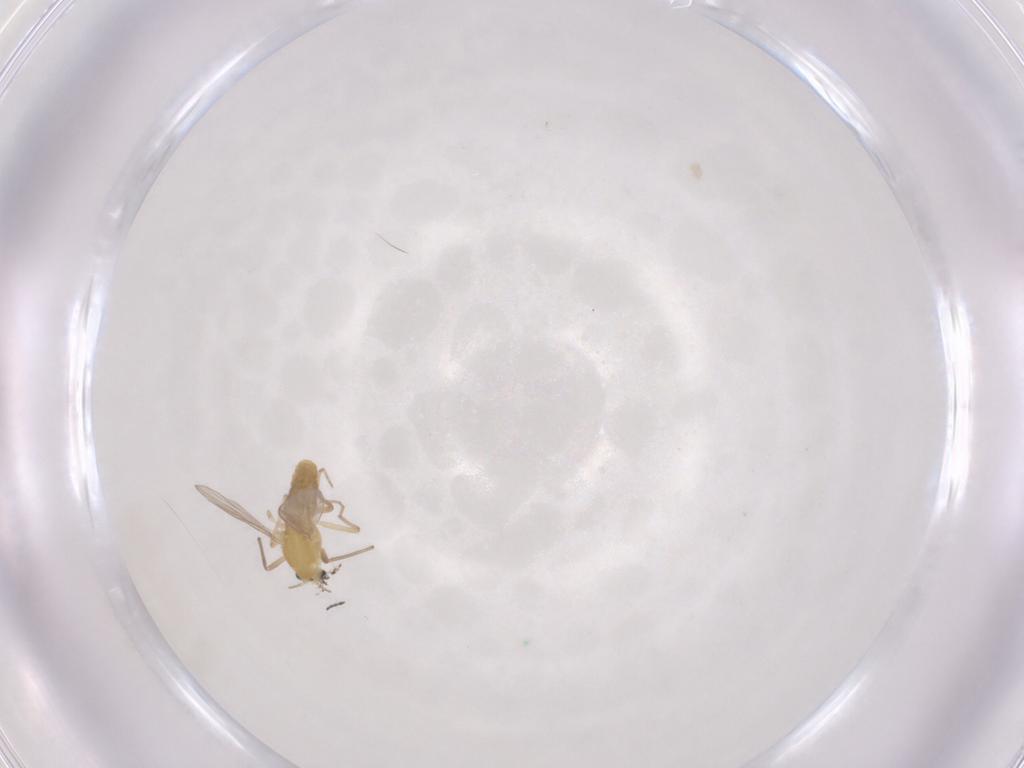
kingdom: Animalia
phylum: Arthropoda
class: Insecta
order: Diptera
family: Chironomidae
